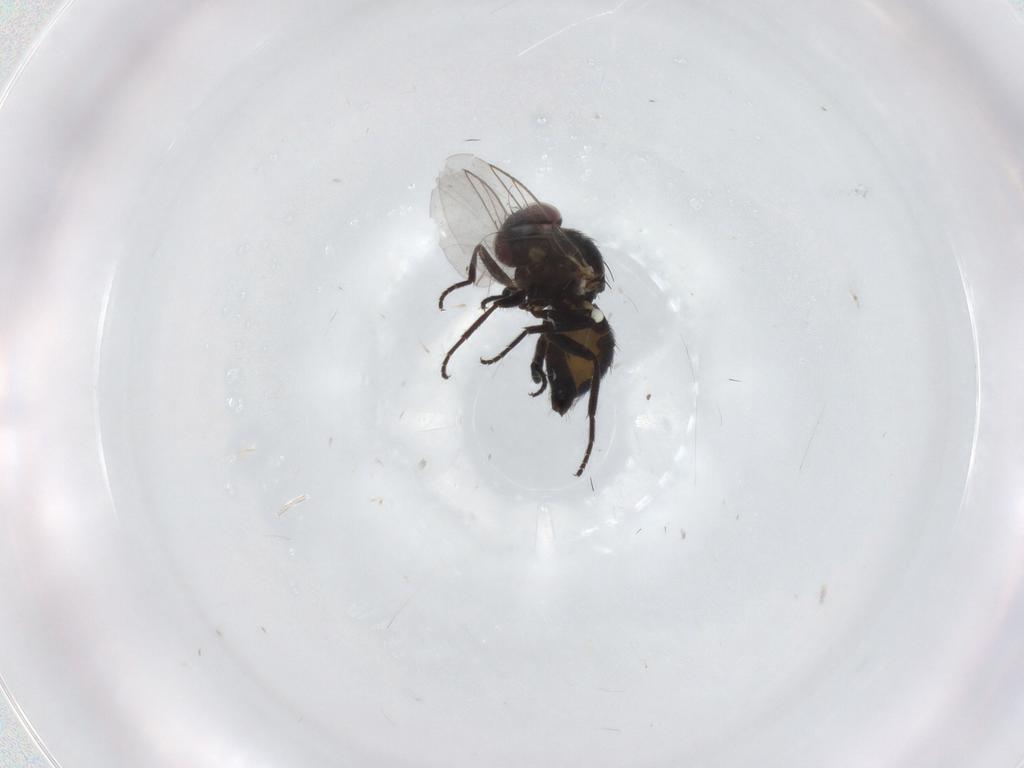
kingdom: Animalia
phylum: Arthropoda
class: Insecta
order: Diptera
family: Agromyzidae
